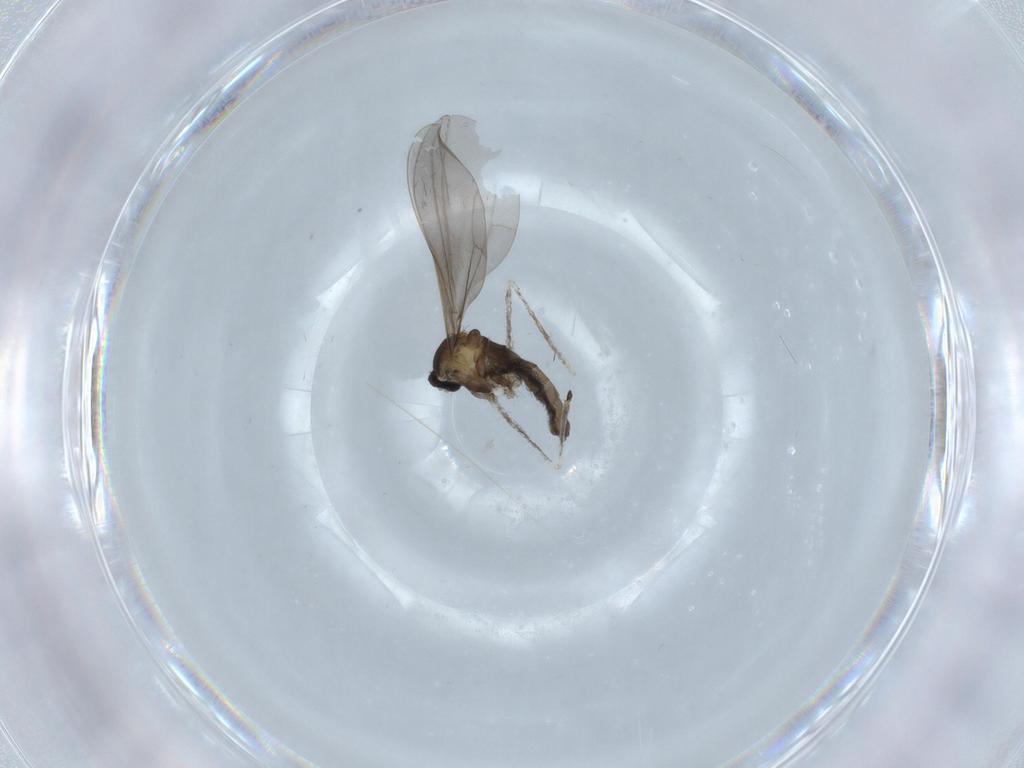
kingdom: Animalia
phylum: Arthropoda
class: Insecta
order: Diptera
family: Cecidomyiidae
